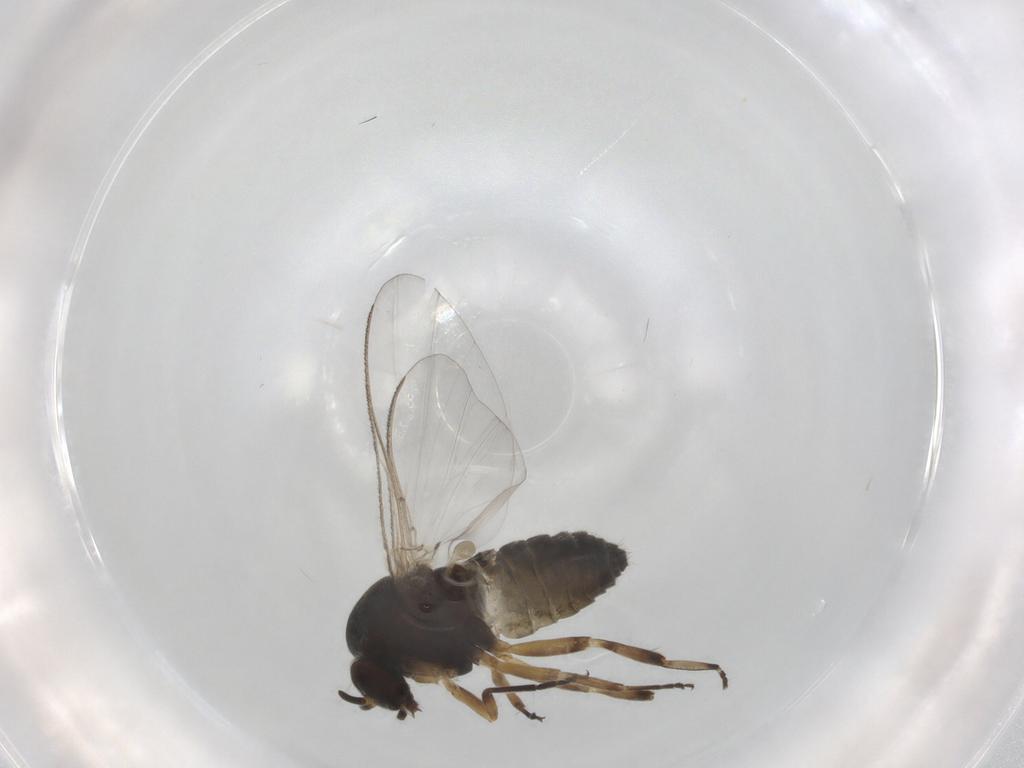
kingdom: Animalia
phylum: Arthropoda
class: Insecta
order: Diptera
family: Chironomidae
